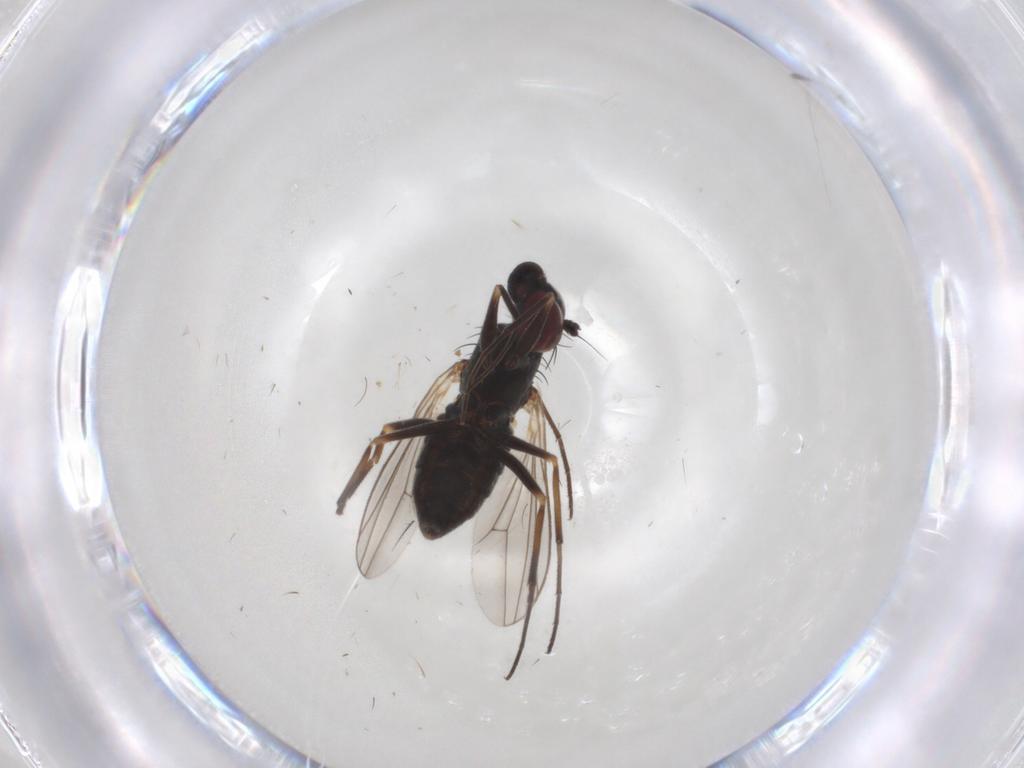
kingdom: Animalia
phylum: Arthropoda
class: Insecta
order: Diptera
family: Dolichopodidae
